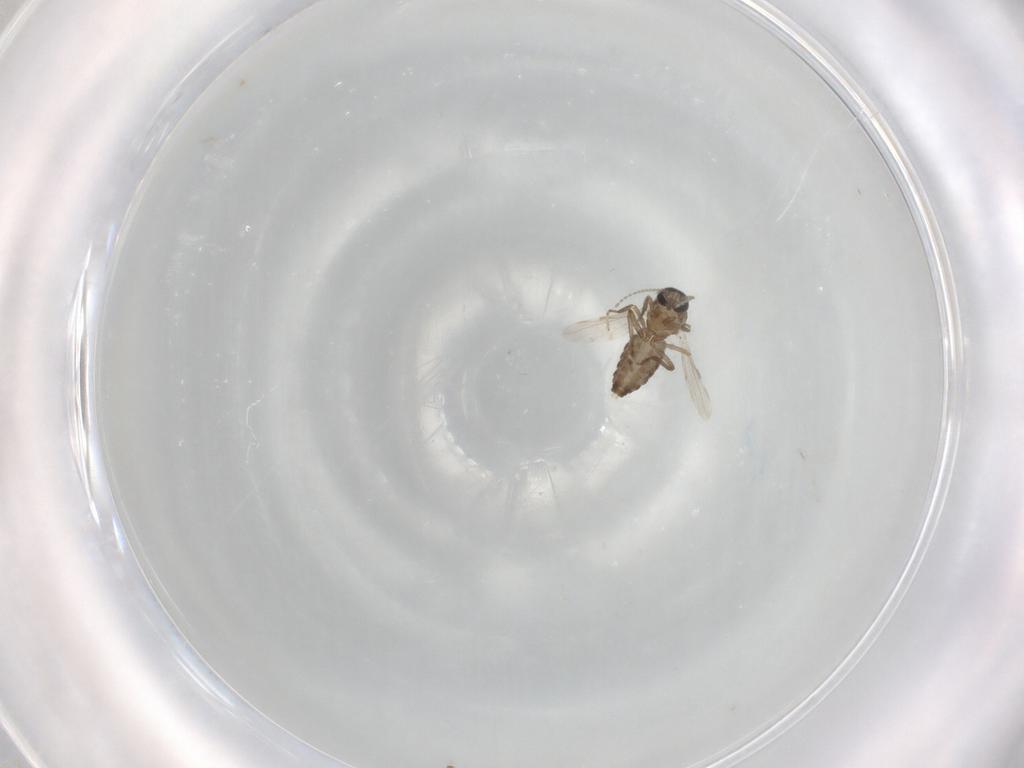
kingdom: Animalia
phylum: Arthropoda
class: Insecta
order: Diptera
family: Ceratopogonidae
